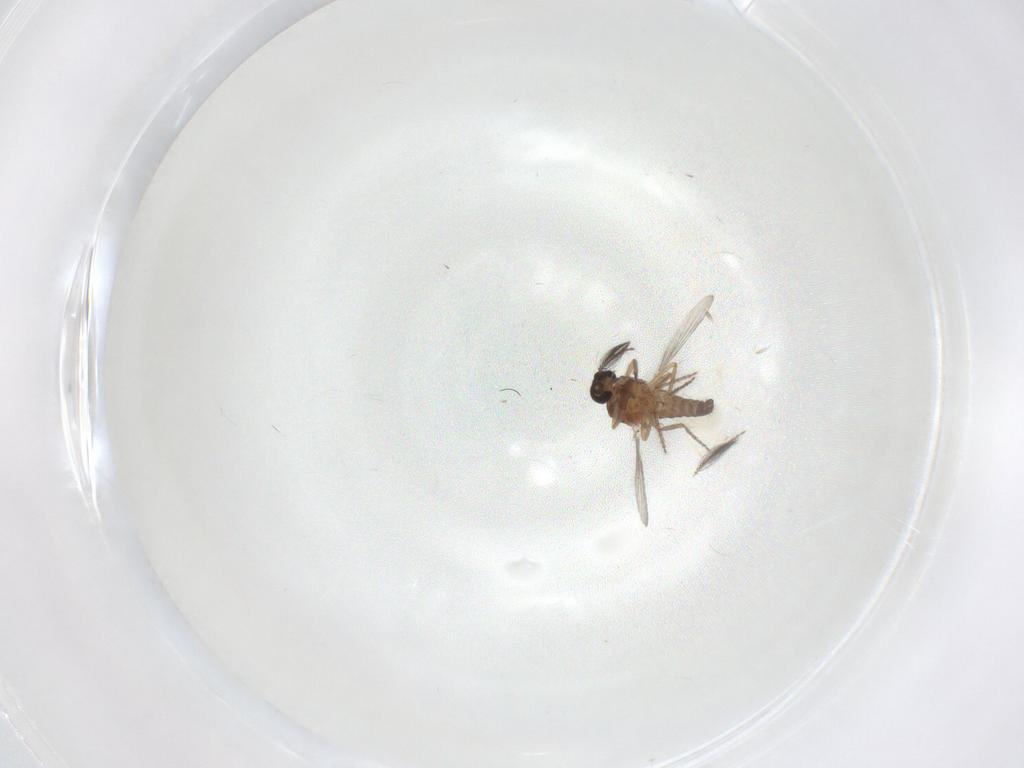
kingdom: Animalia
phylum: Arthropoda
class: Insecta
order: Diptera
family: Ceratopogonidae
